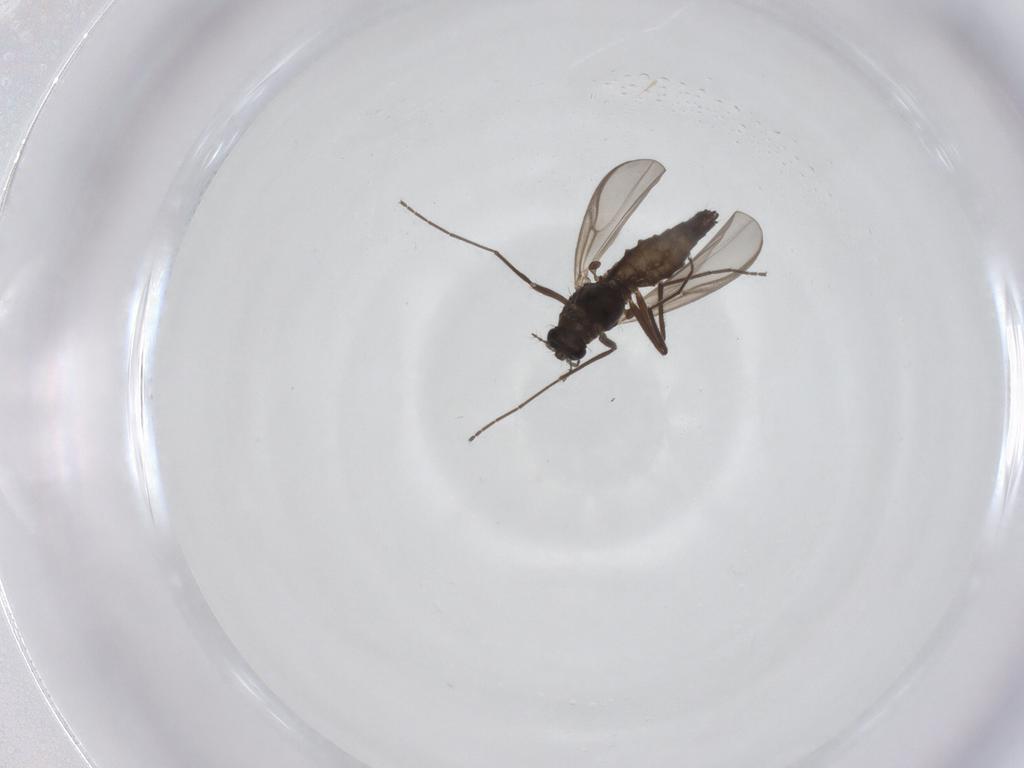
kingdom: Animalia
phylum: Arthropoda
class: Insecta
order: Diptera
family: Chironomidae
